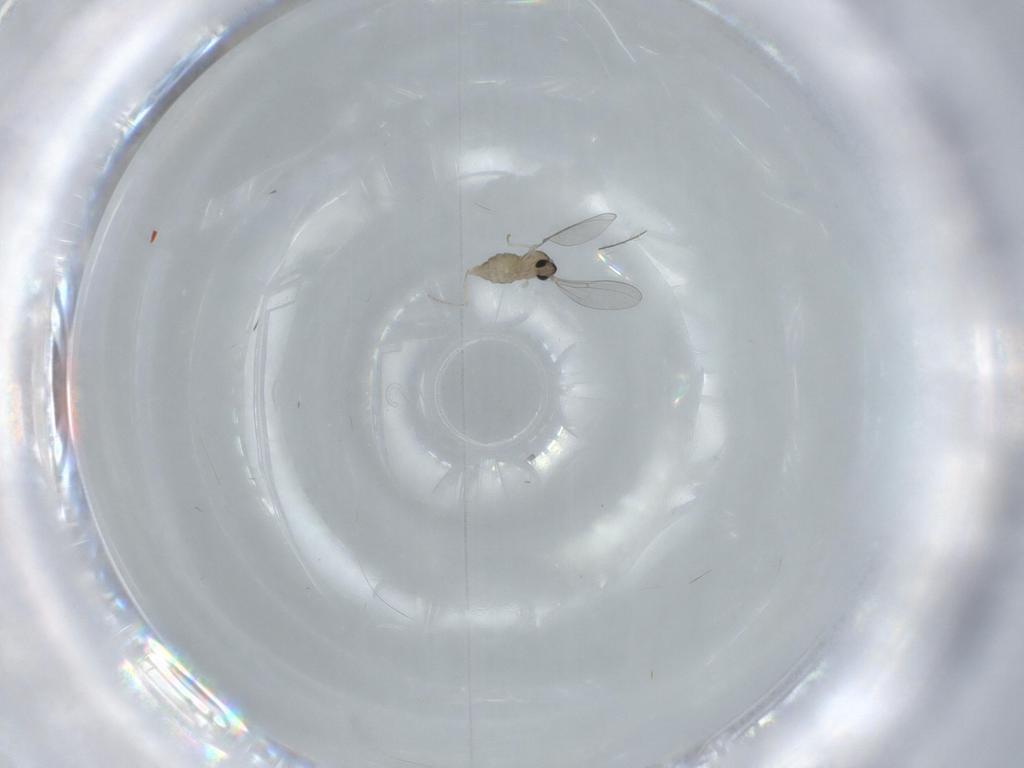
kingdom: Animalia
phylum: Arthropoda
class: Insecta
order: Diptera
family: Cecidomyiidae
